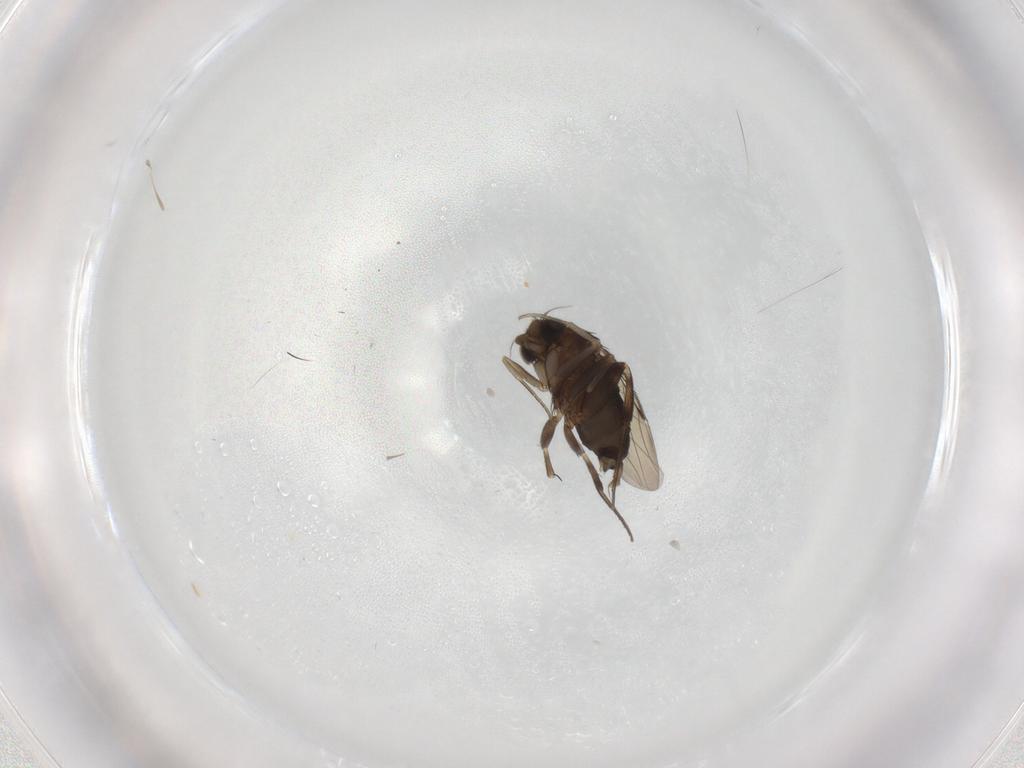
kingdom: Animalia
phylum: Arthropoda
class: Insecta
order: Diptera
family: Phoridae
